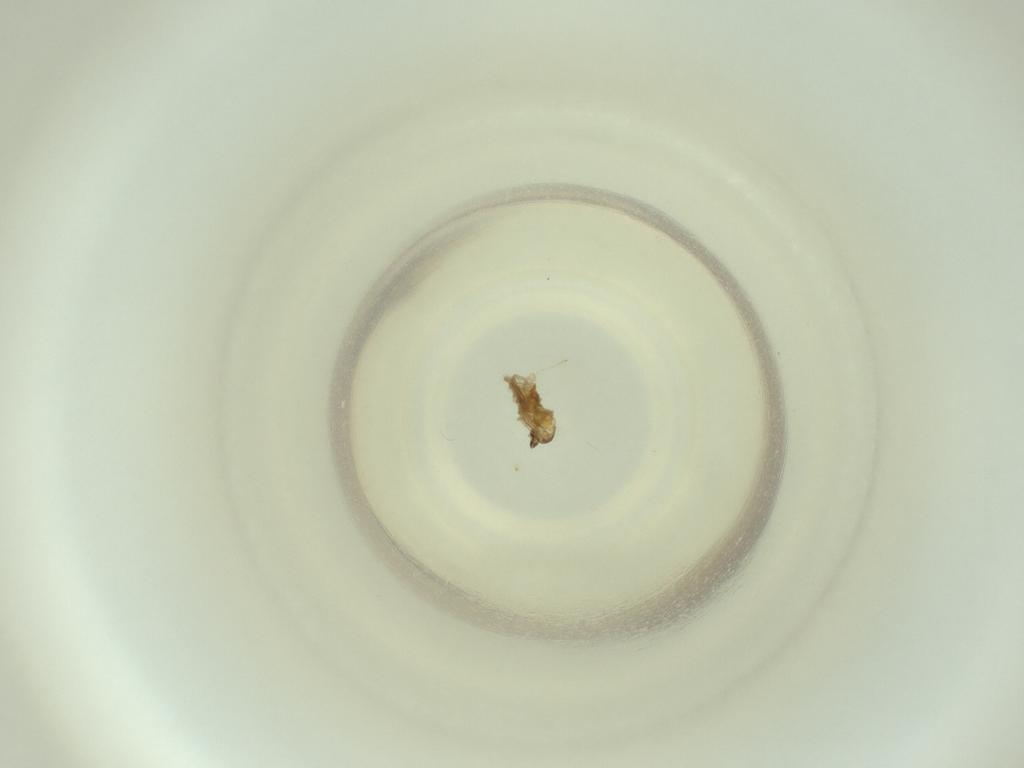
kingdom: Animalia
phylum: Arthropoda
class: Insecta
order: Diptera
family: Cecidomyiidae
